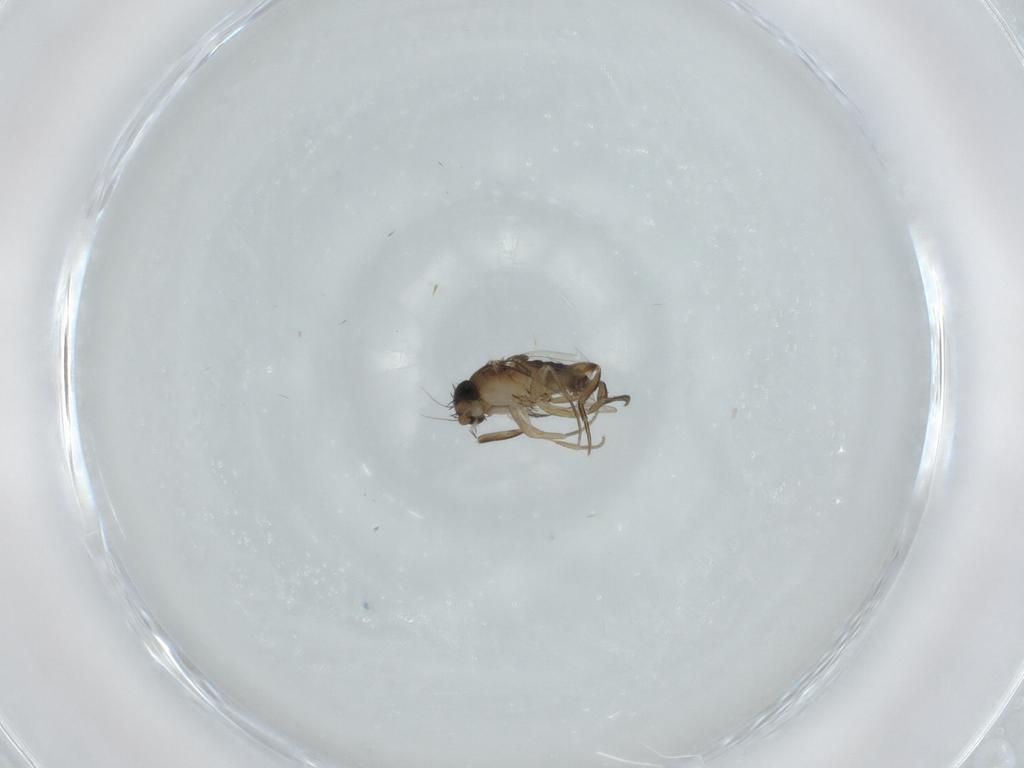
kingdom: Animalia
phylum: Arthropoda
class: Insecta
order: Diptera
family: Phoridae
